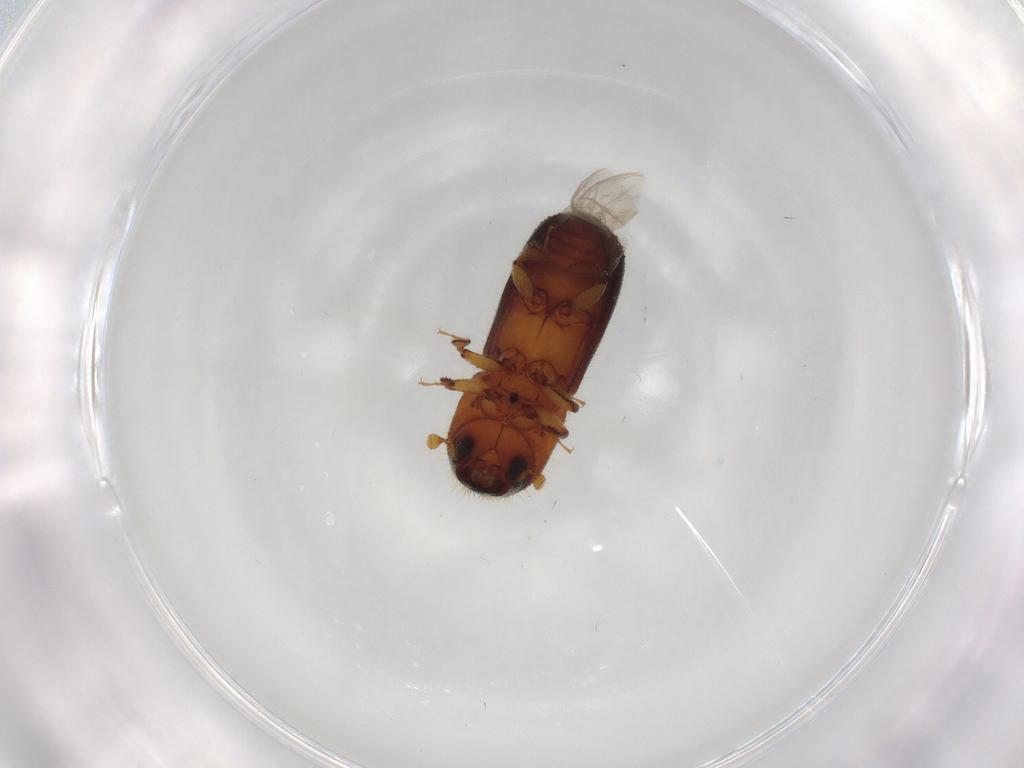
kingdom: Animalia
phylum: Arthropoda
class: Insecta
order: Coleoptera
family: Curculionidae
